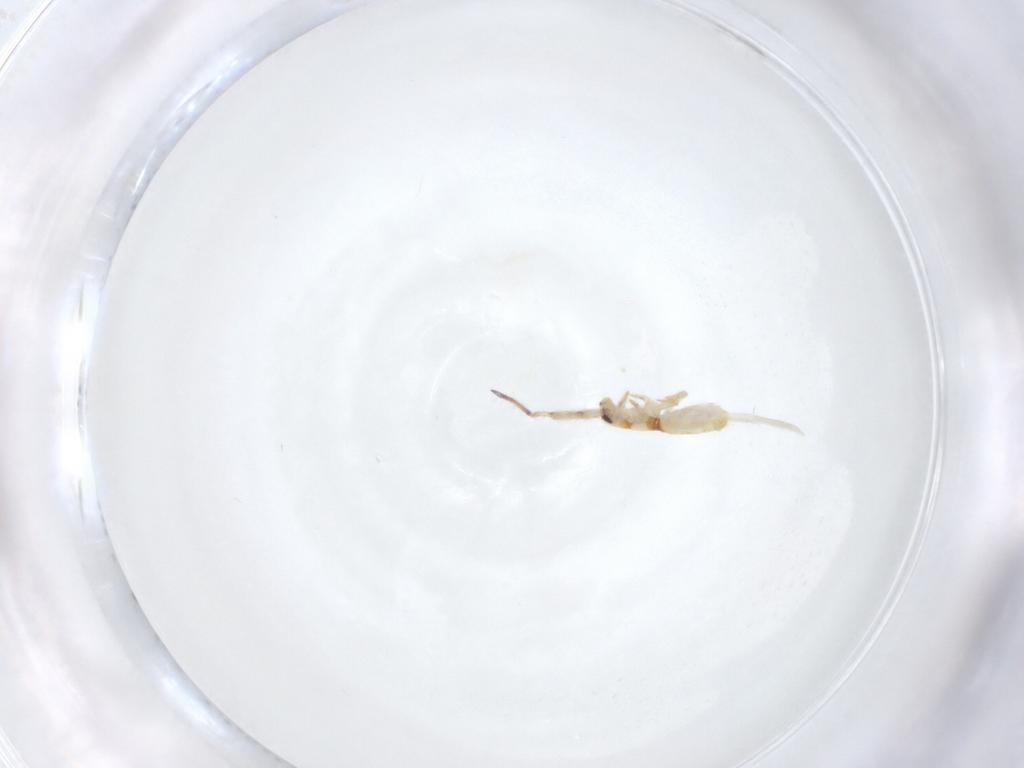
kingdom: Animalia
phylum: Arthropoda
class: Collembola
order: Entomobryomorpha
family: Entomobryidae
